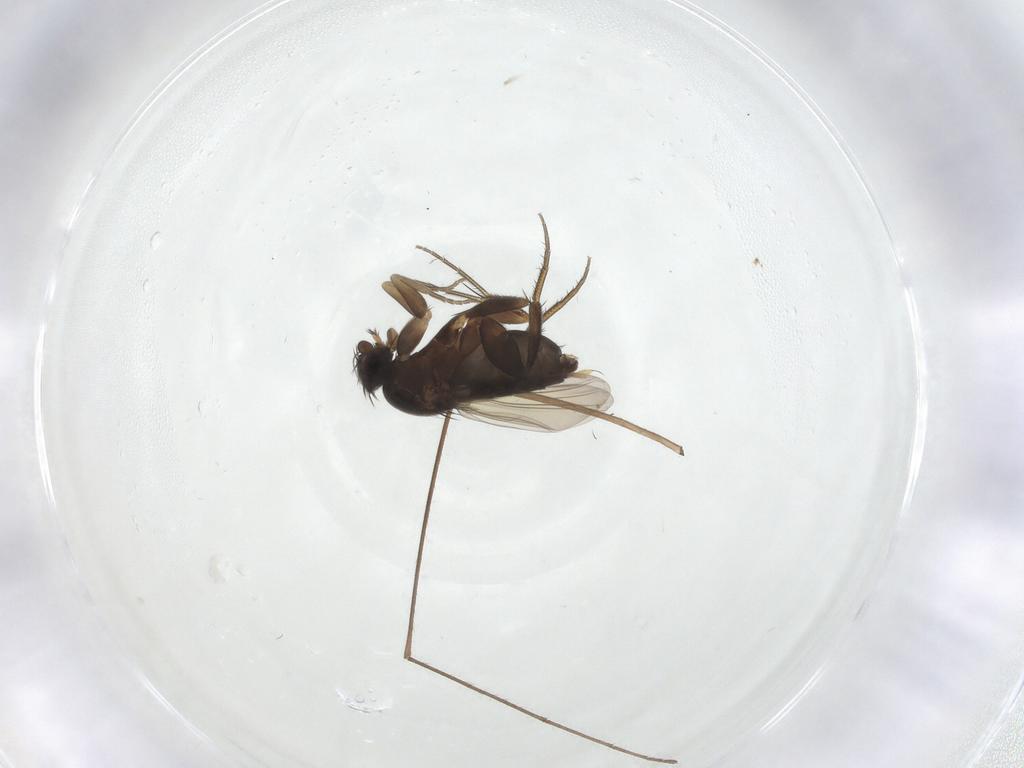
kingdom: Animalia
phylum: Arthropoda
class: Insecta
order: Diptera
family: Phoridae
